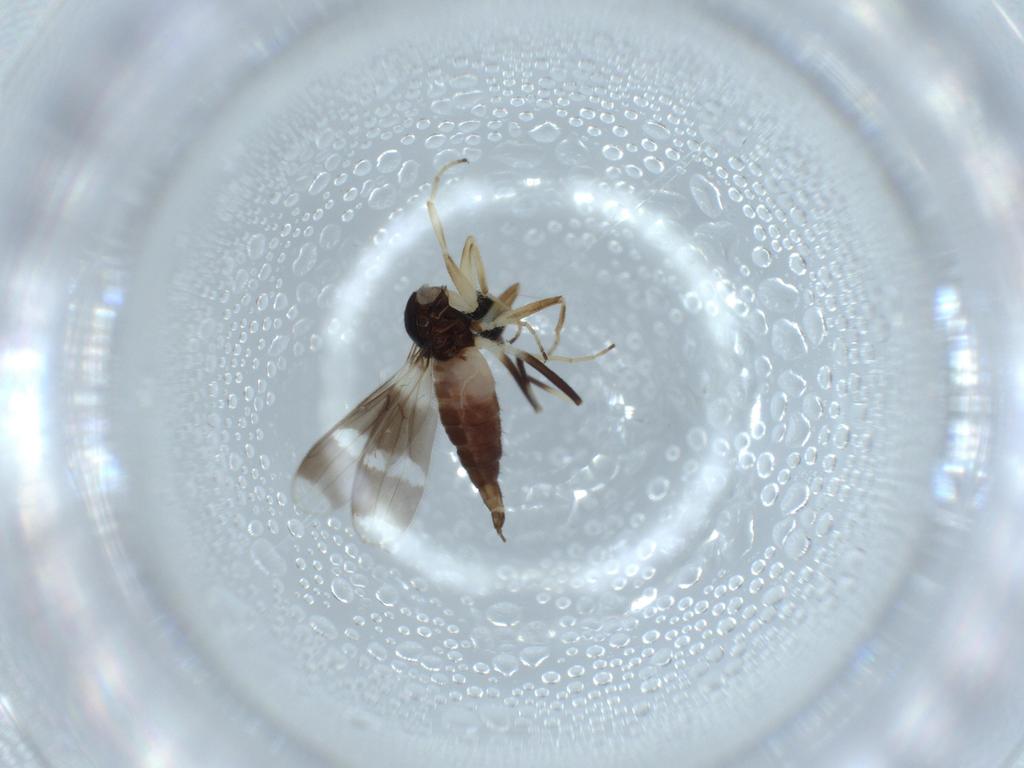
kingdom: Animalia
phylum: Arthropoda
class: Insecta
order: Diptera
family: Hybotidae
